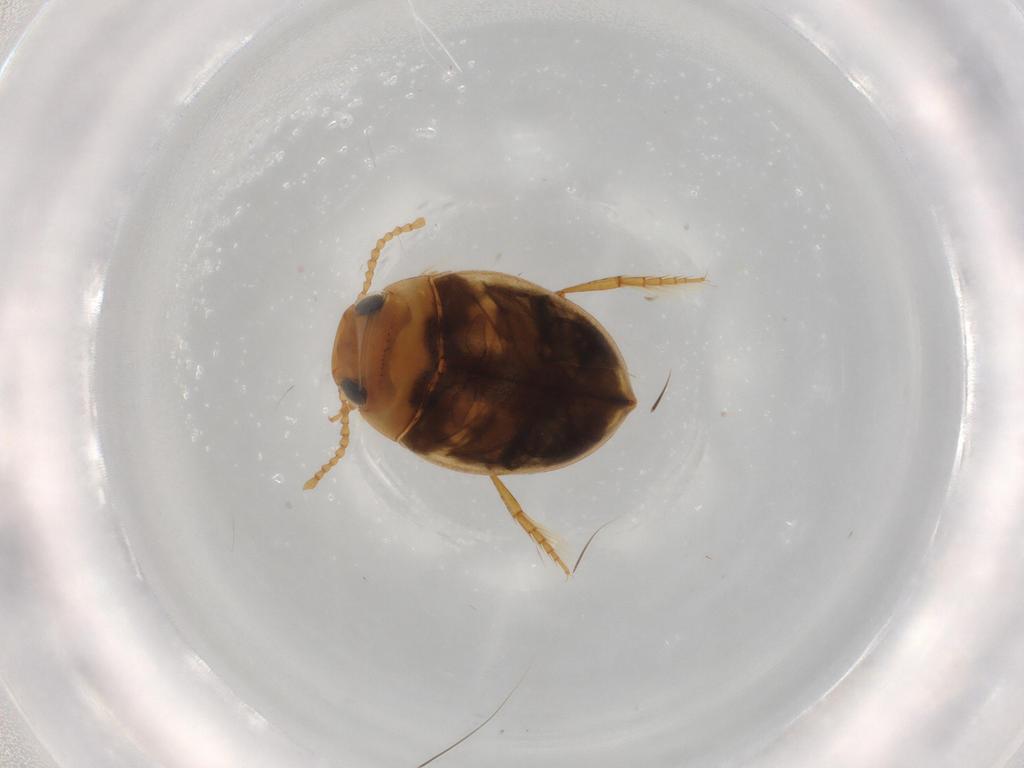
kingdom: Animalia
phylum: Arthropoda
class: Insecta
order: Coleoptera
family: Dytiscidae
